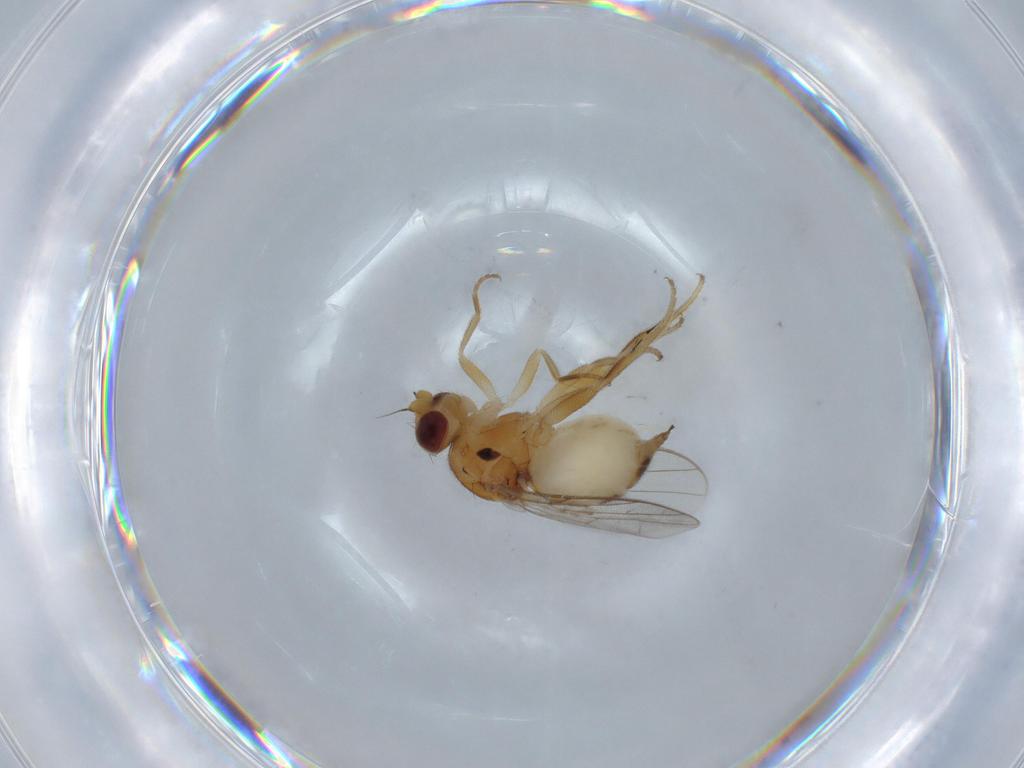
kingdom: Animalia
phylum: Arthropoda
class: Insecta
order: Diptera
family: Chloropidae
